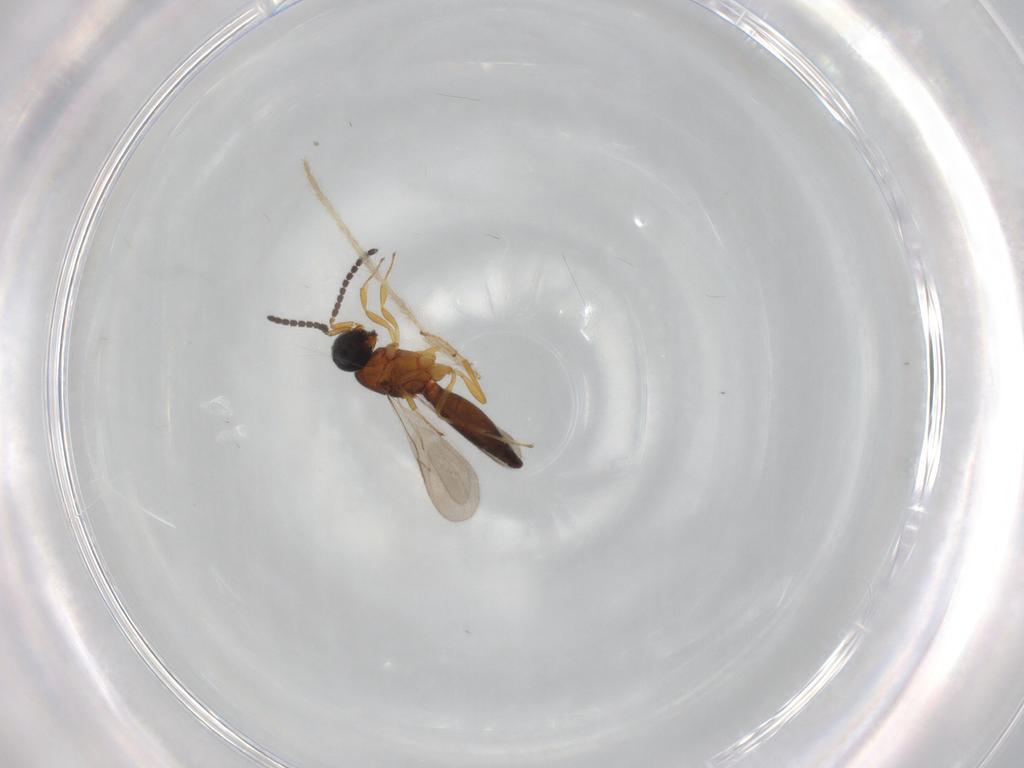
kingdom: Animalia
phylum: Arthropoda
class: Insecta
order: Hymenoptera
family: Scelionidae
